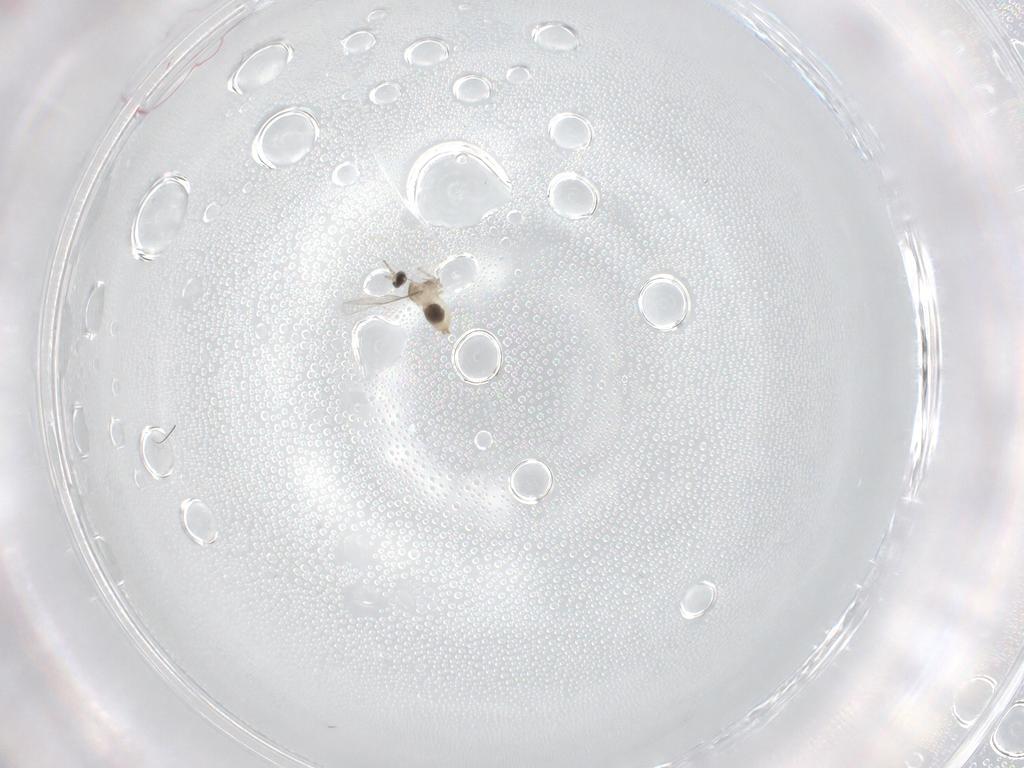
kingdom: Animalia
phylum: Arthropoda
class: Insecta
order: Diptera
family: Cecidomyiidae
